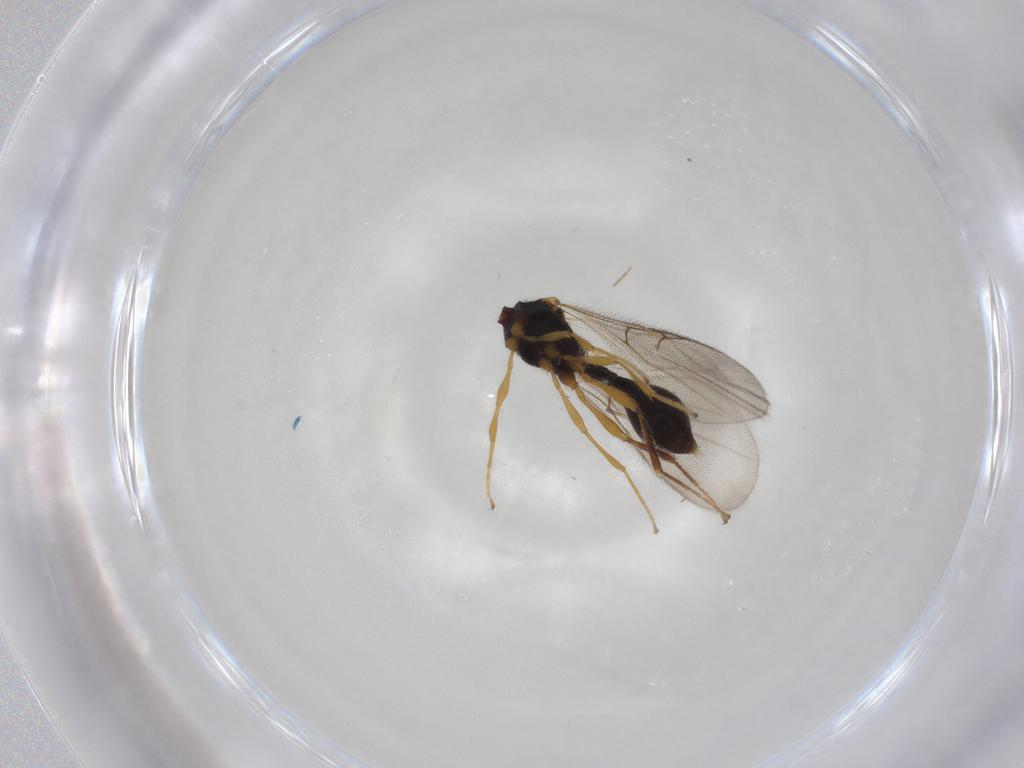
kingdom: Animalia
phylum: Arthropoda
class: Insecta
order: Hymenoptera
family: Diapriidae
